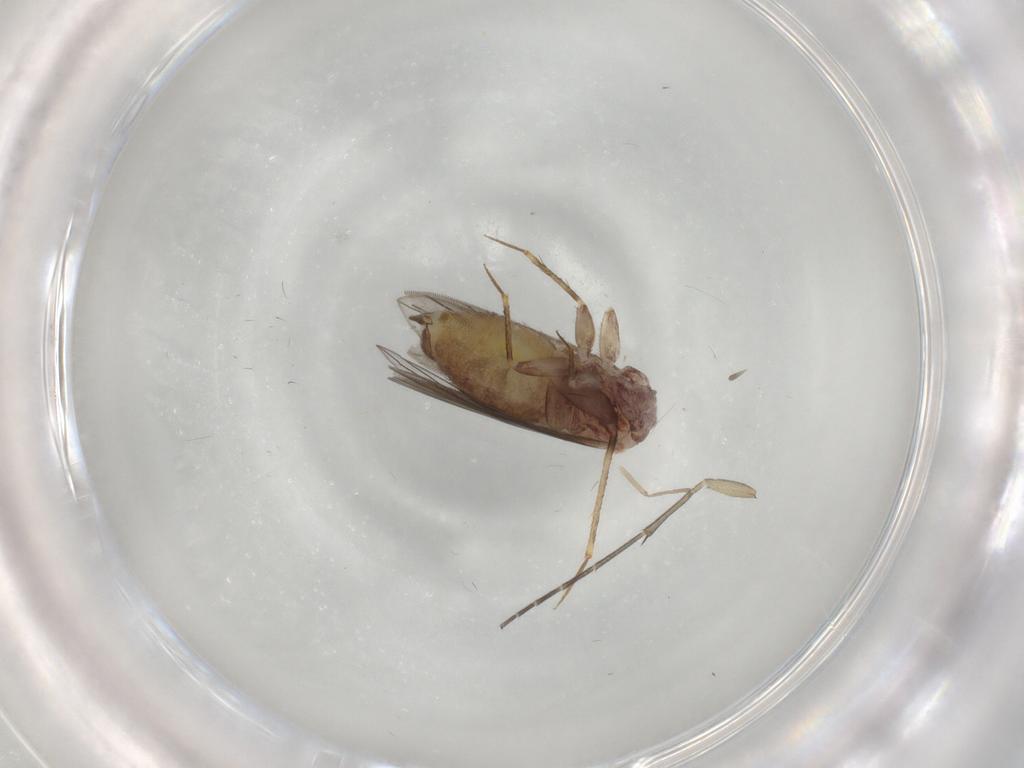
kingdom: Animalia
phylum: Arthropoda
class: Insecta
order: Psocodea
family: Lepidopsocidae
